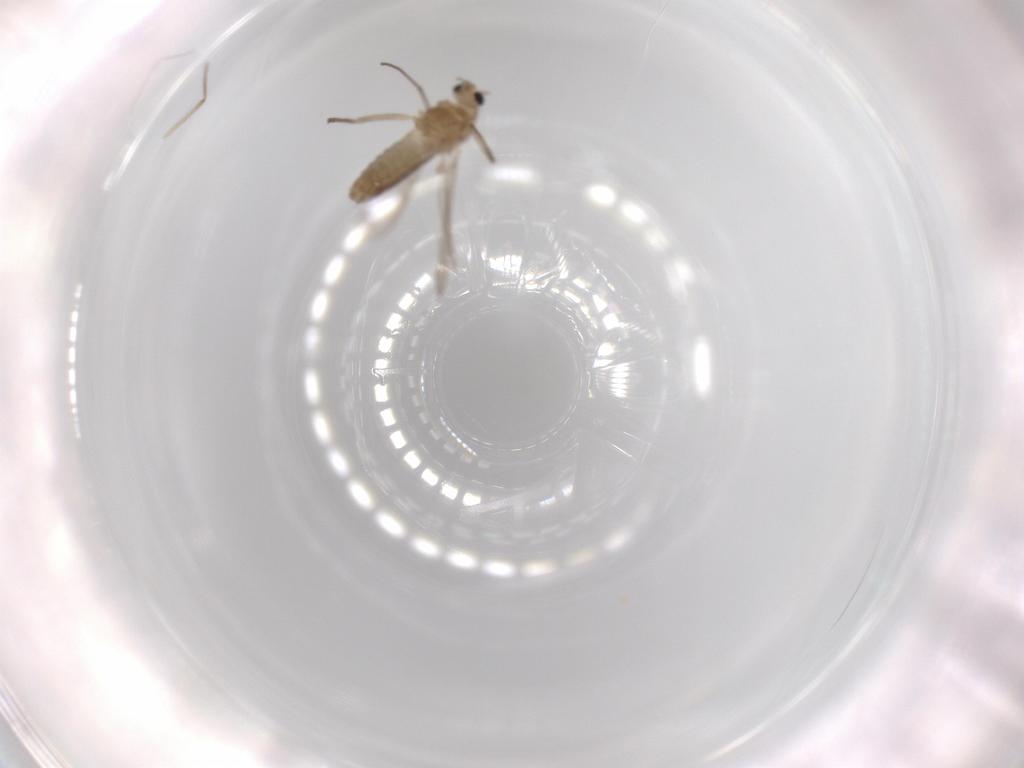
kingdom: Animalia
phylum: Arthropoda
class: Insecta
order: Diptera
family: Chironomidae
